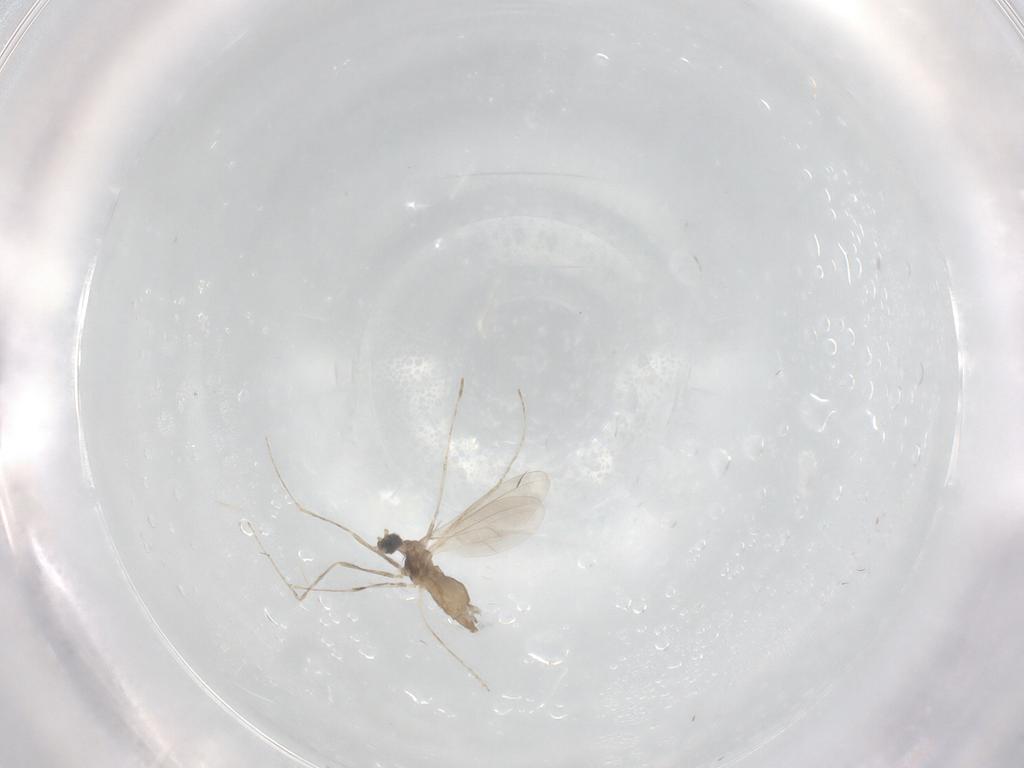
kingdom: Animalia
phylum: Arthropoda
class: Insecta
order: Diptera
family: Cecidomyiidae
